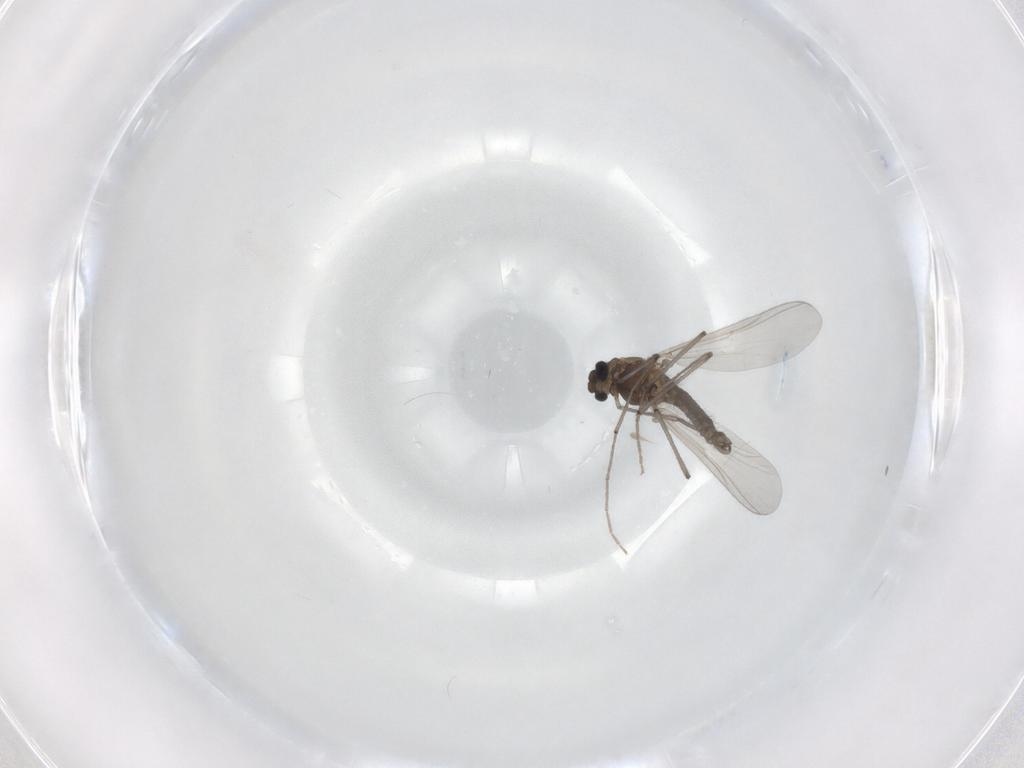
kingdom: Animalia
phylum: Arthropoda
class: Insecta
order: Diptera
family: Chironomidae
